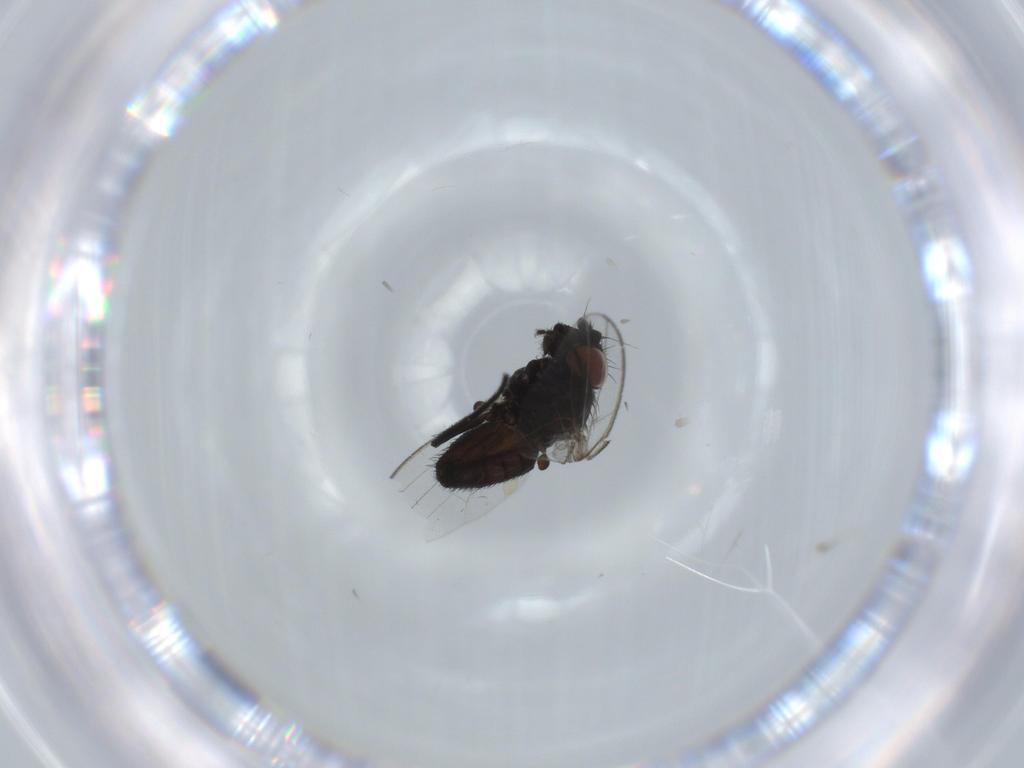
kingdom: Animalia
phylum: Arthropoda
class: Insecta
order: Diptera
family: Milichiidae
